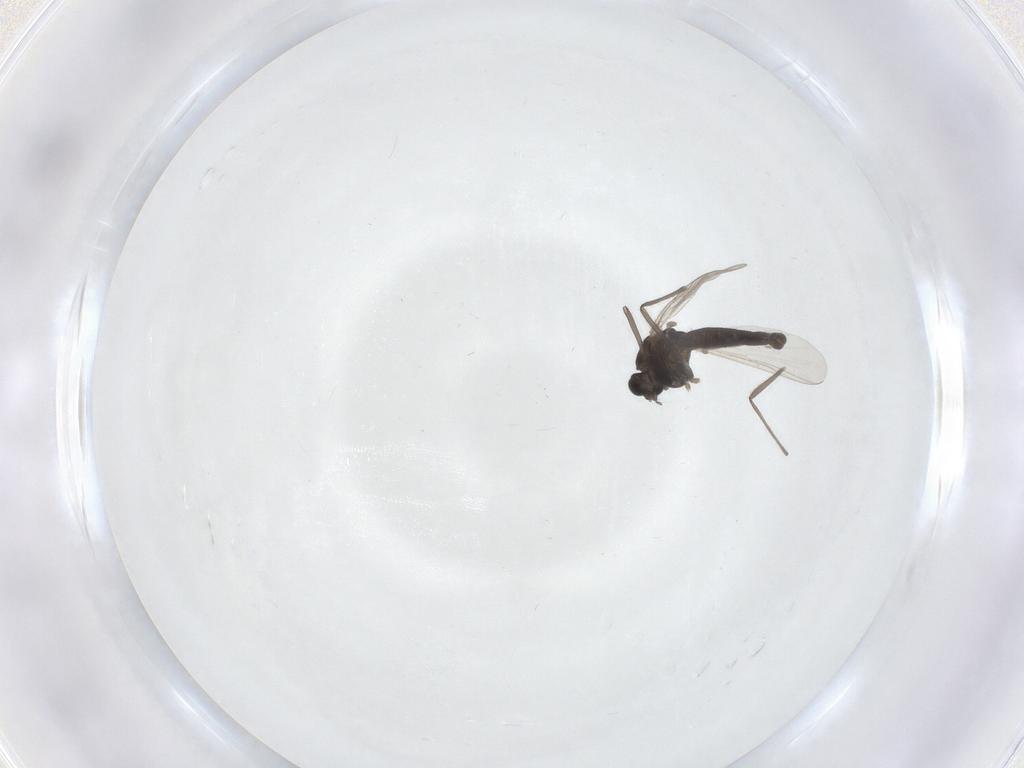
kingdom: Animalia
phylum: Arthropoda
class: Insecta
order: Diptera
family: Chironomidae
